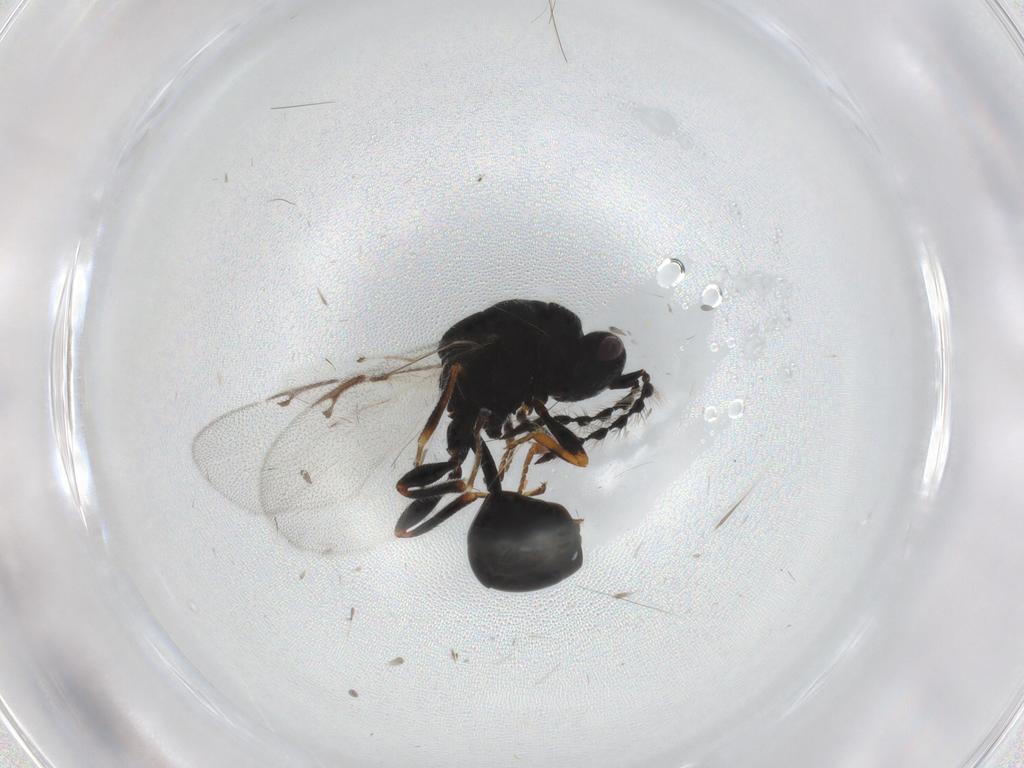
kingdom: Animalia
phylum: Arthropoda
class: Insecta
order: Hymenoptera
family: Eurytomidae
